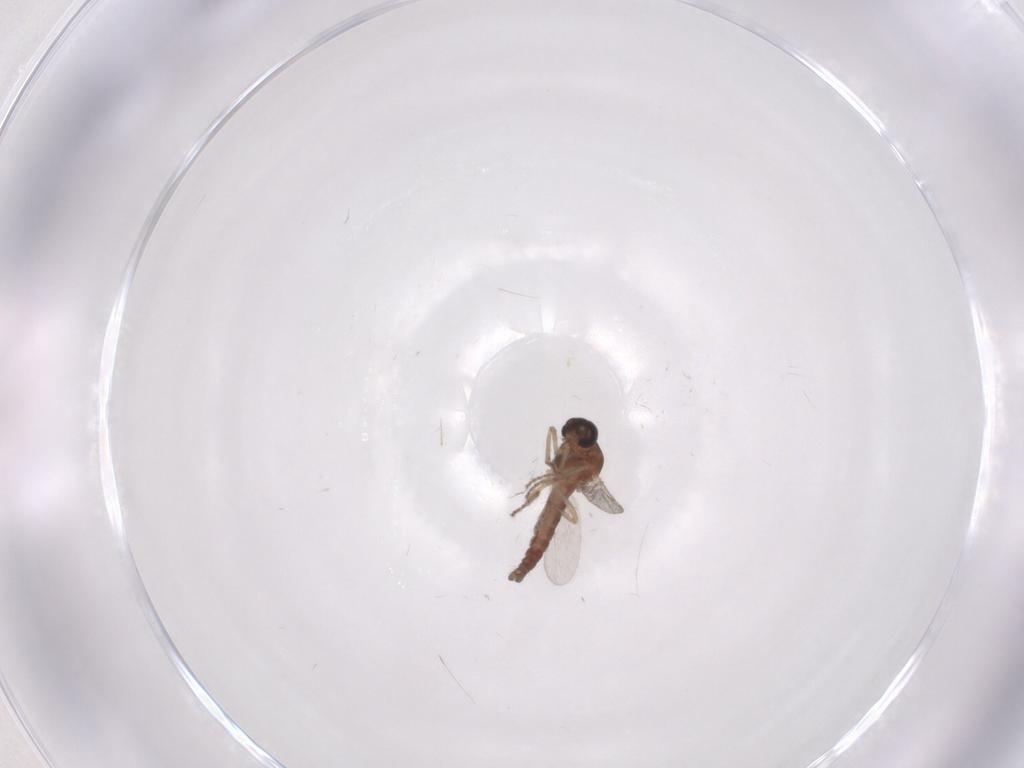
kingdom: Animalia
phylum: Arthropoda
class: Insecta
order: Diptera
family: Ceratopogonidae
